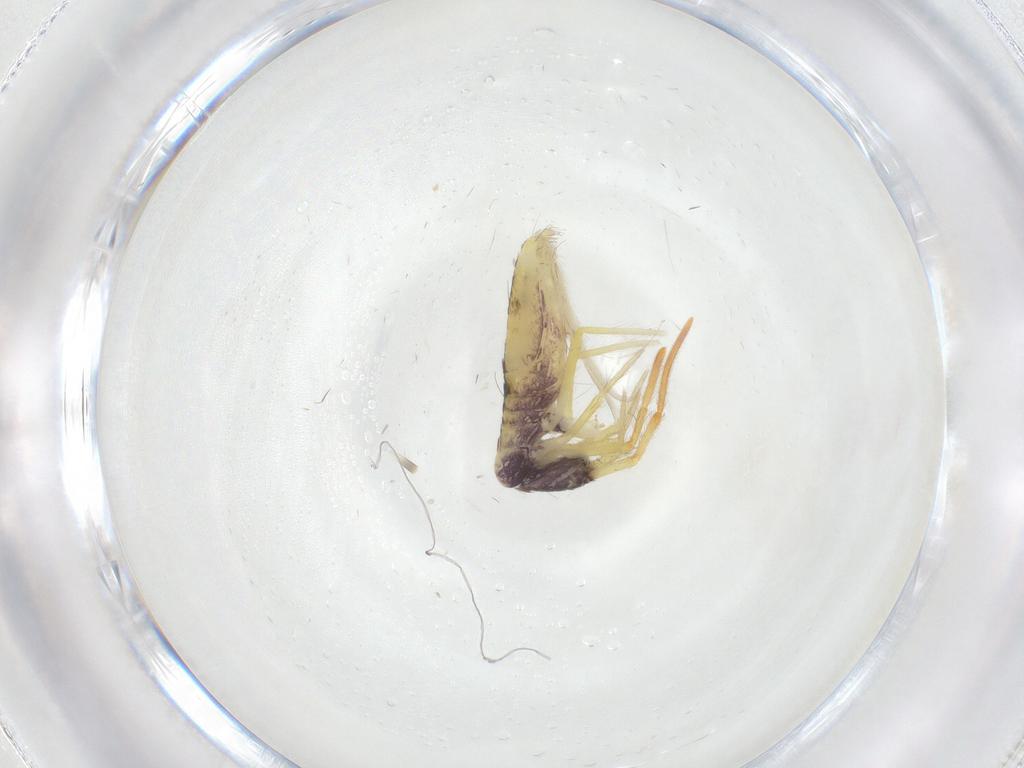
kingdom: Animalia
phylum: Arthropoda
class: Collembola
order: Entomobryomorpha
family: Entomobryidae
